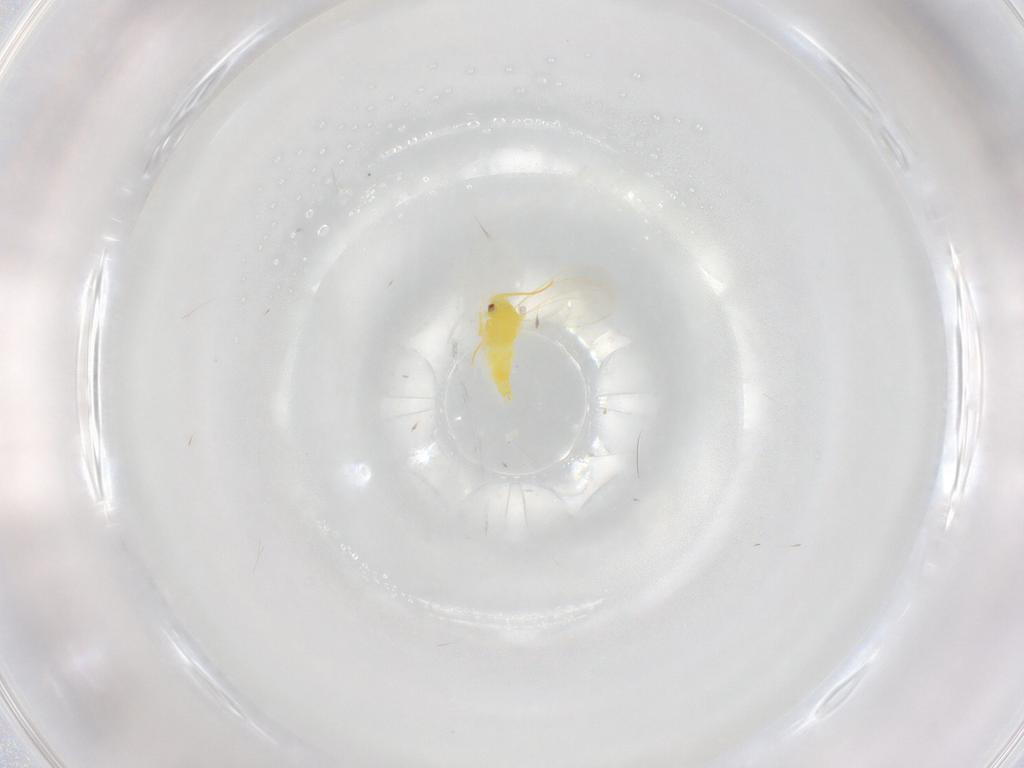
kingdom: Animalia
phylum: Arthropoda
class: Insecta
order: Hemiptera
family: Aleyrodidae
